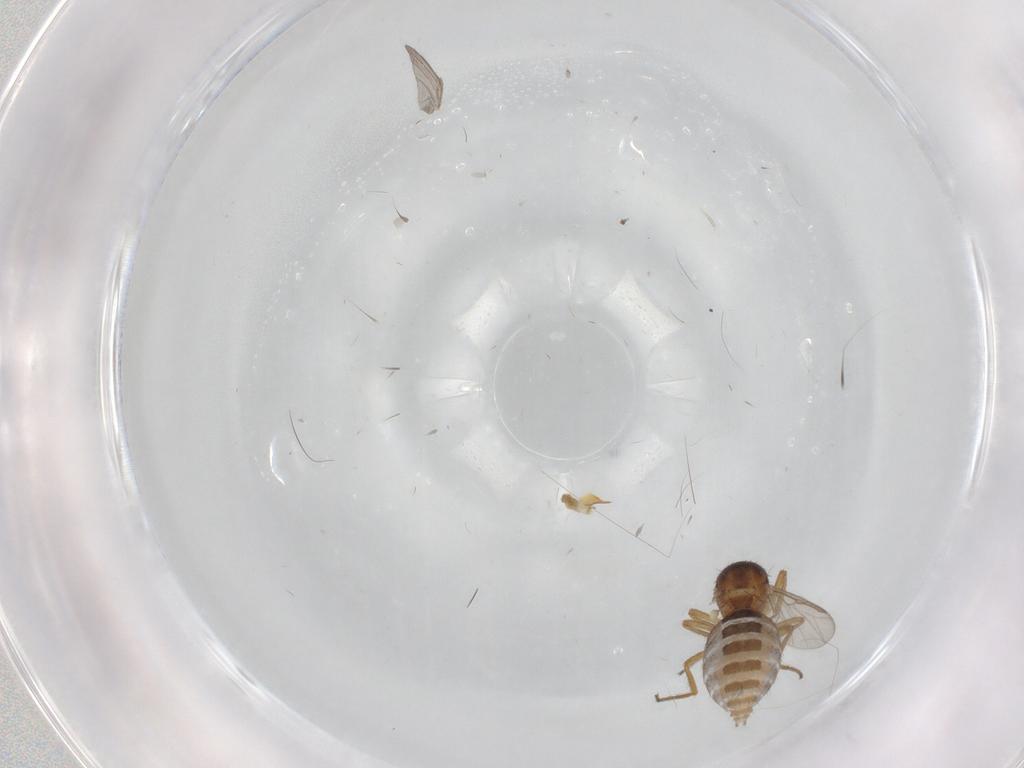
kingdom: Animalia
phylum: Arthropoda
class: Insecta
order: Diptera
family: Ceratopogonidae
